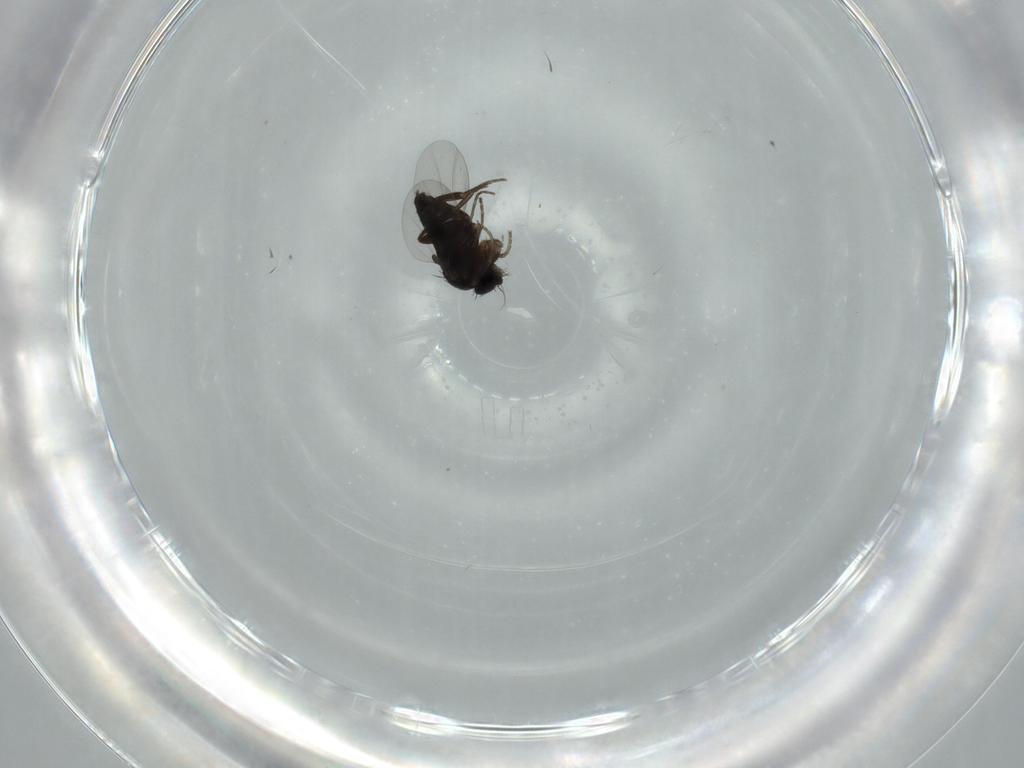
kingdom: Animalia
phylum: Arthropoda
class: Insecta
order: Diptera
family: Phoridae
